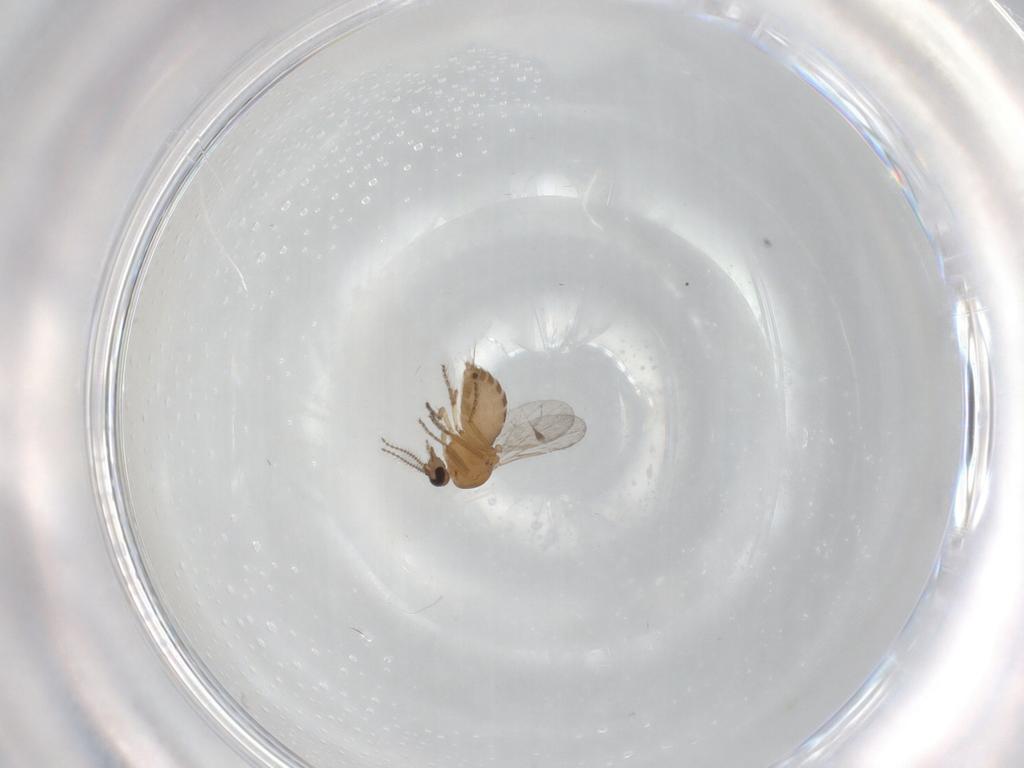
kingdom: Animalia
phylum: Arthropoda
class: Insecta
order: Diptera
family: Ceratopogonidae
